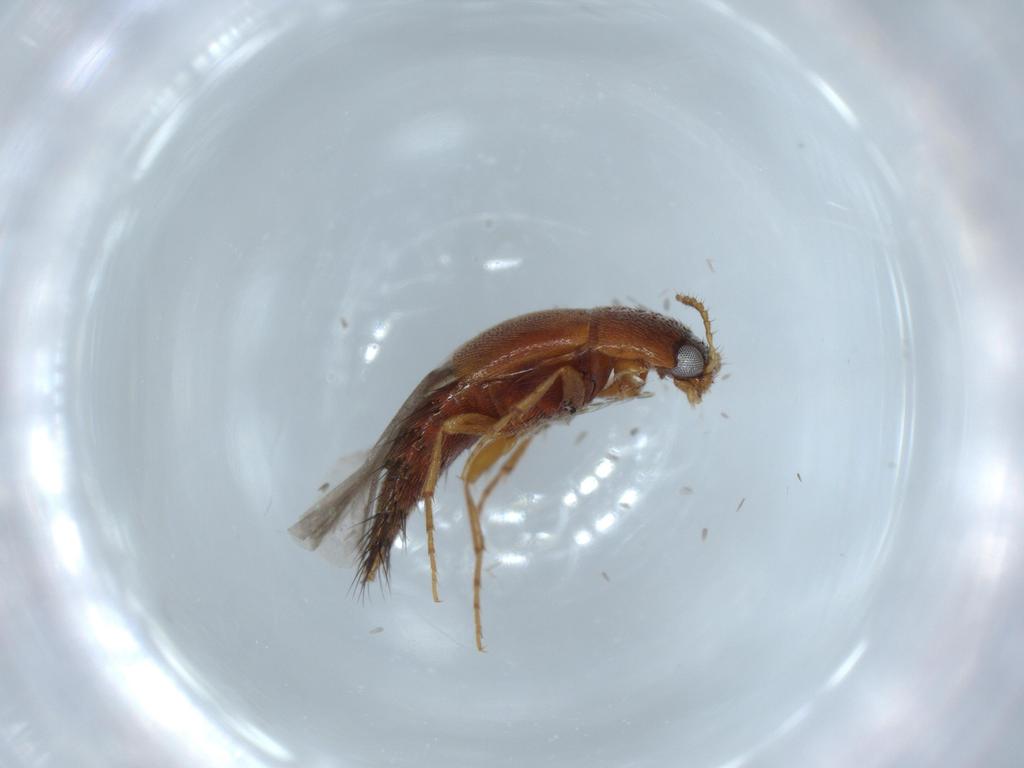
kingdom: Animalia
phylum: Arthropoda
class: Insecta
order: Coleoptera
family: Staphylinidae
